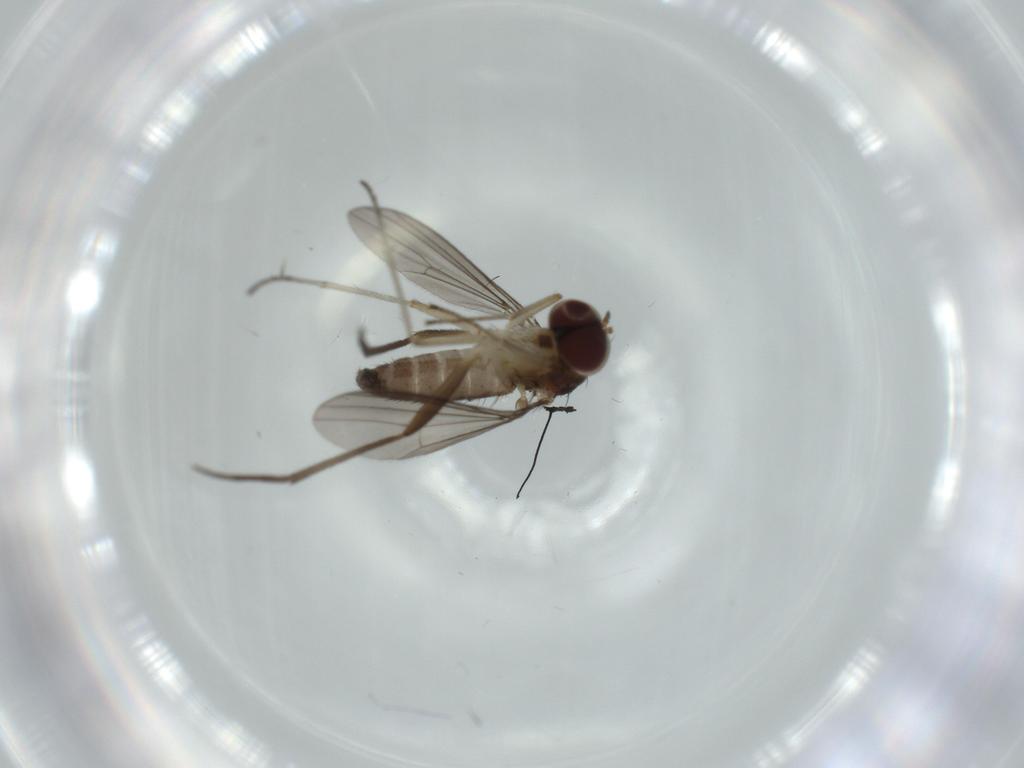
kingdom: Animalia
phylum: Arthropoda
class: Insecta
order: Diptera
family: Dolichopodidae
